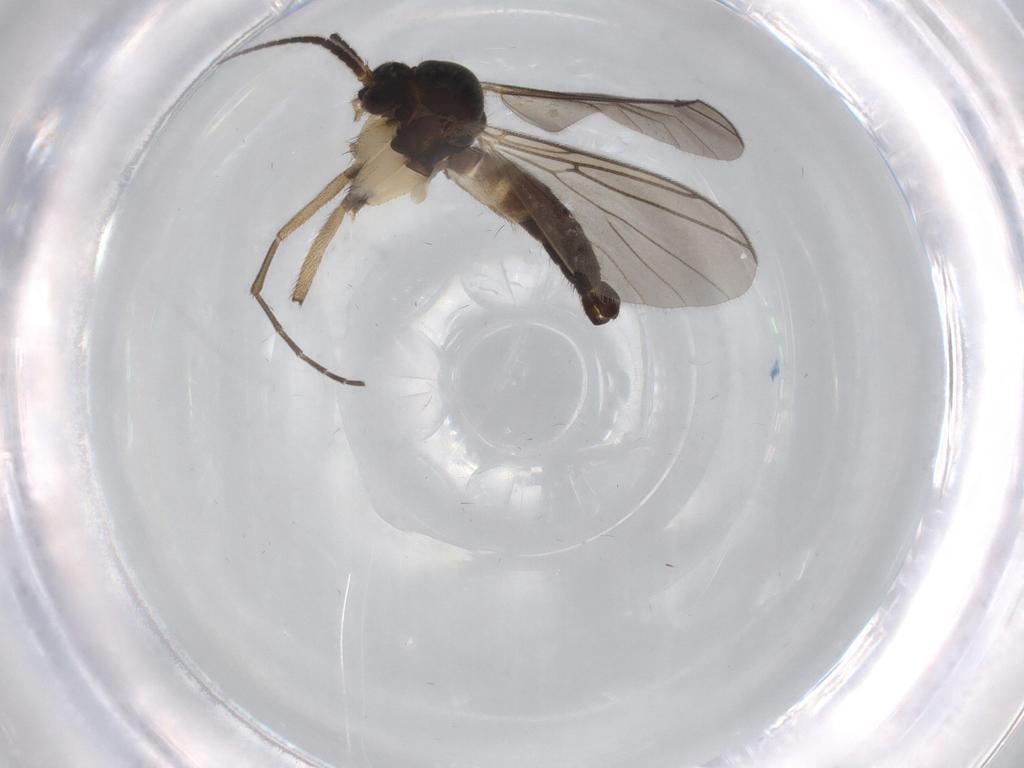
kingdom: Animalia
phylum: Arthropoda
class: Insecta
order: Diptera
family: Mycetophilidae
